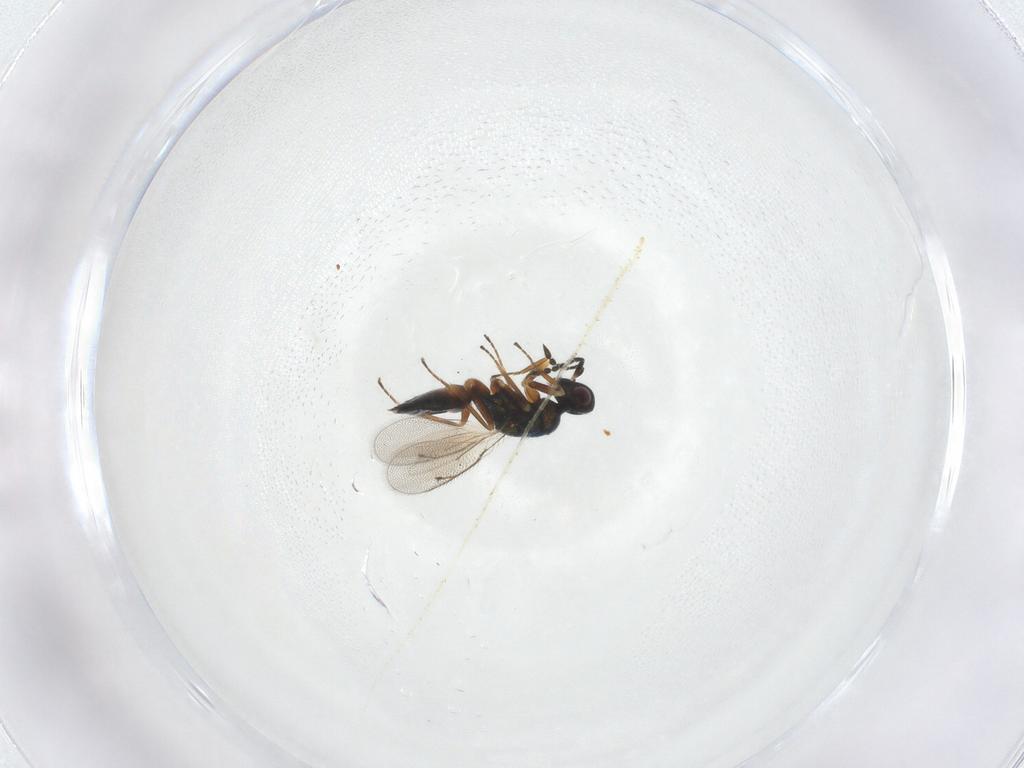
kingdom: Animalia
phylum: Arthropoda
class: Insecta
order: Hymenoptera
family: Eulophidae
